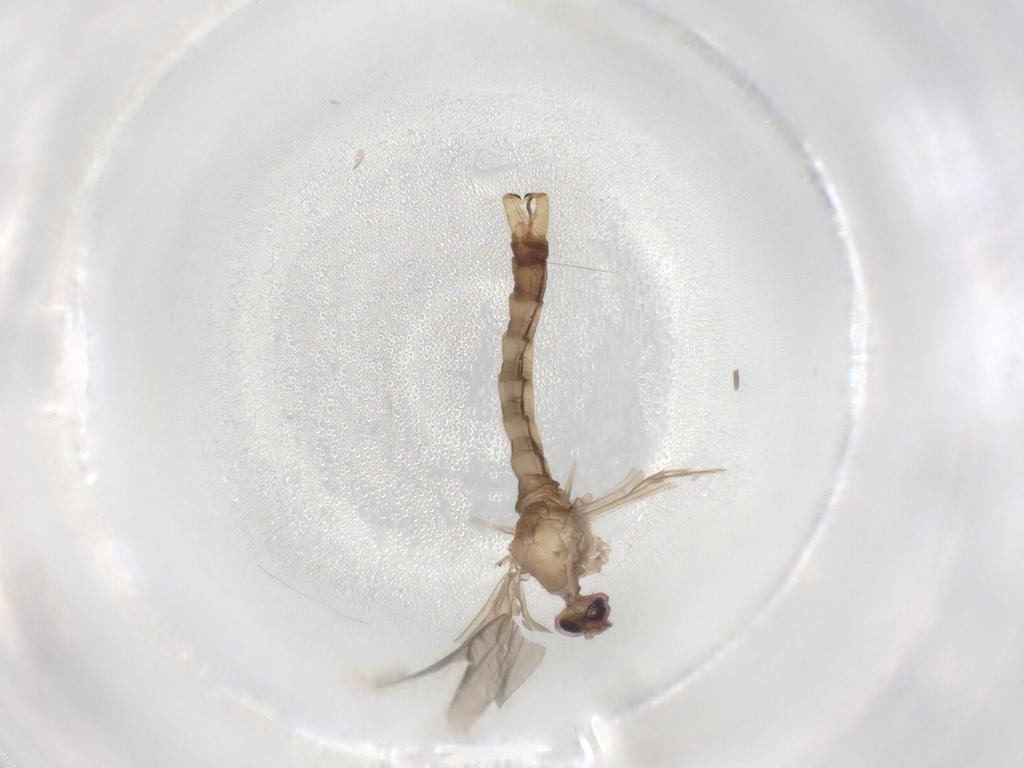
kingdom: Animalia
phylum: Arthropoda
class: Insecta
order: Diptera
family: Limoniidae
